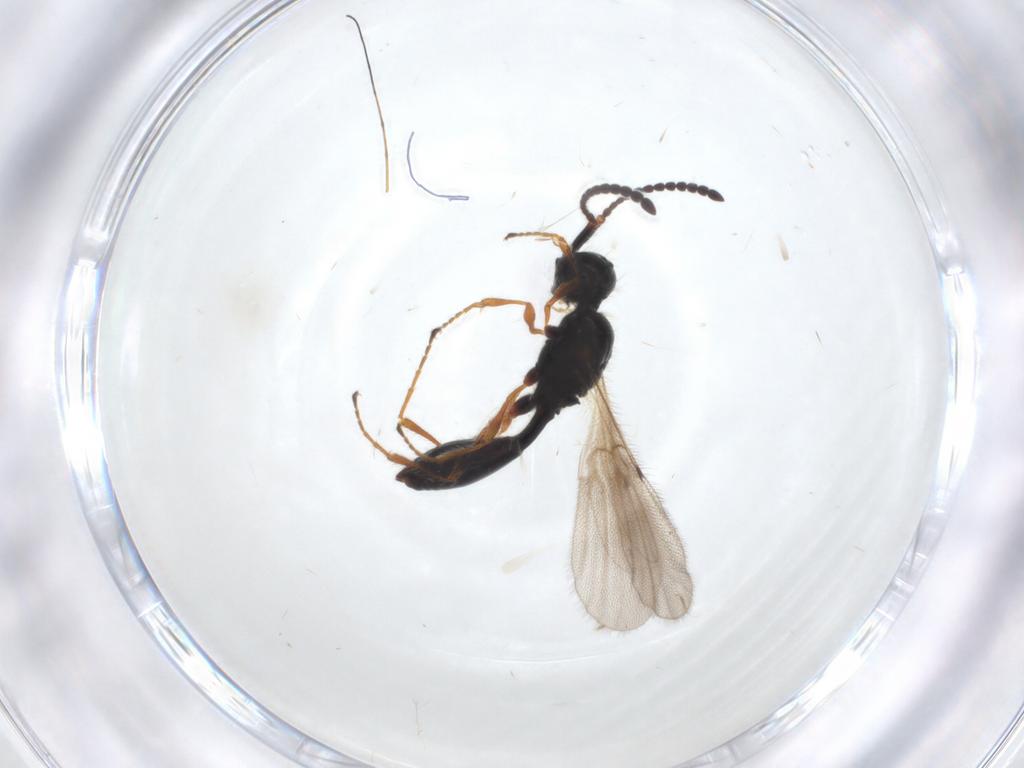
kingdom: Animalia
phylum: Arthropoda
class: Insecta
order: Hymenoptera
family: Diapriidae
